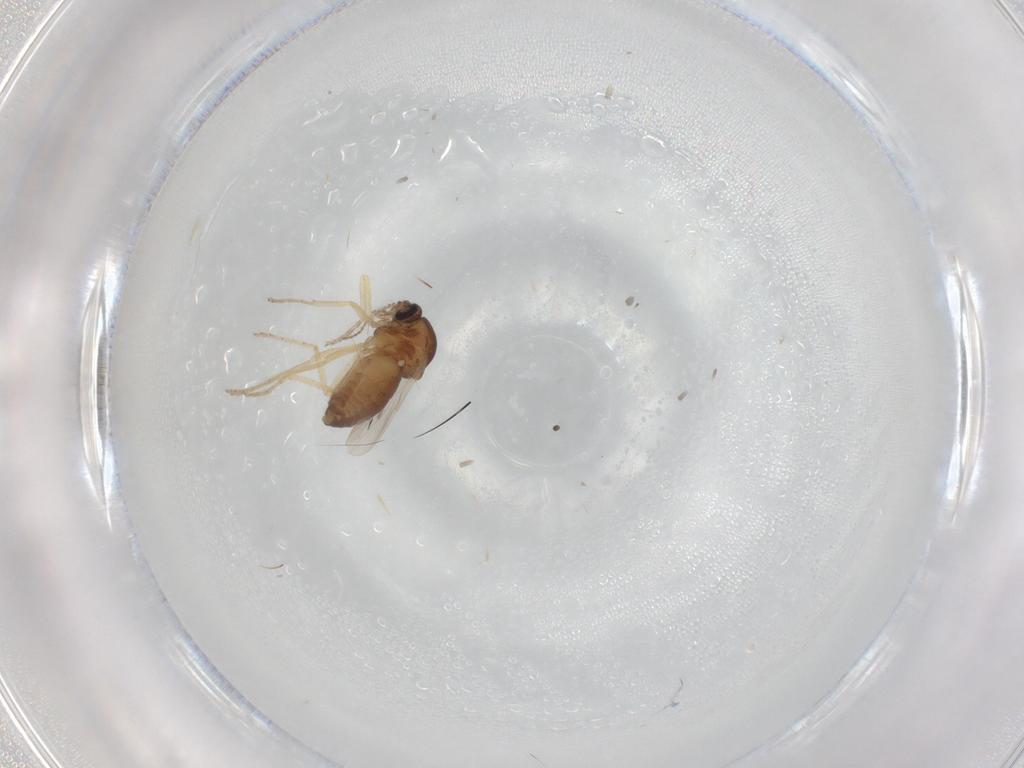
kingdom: Animalia
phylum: Arthropoda
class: Insecta
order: Diptera
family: Ceratopogonidae
